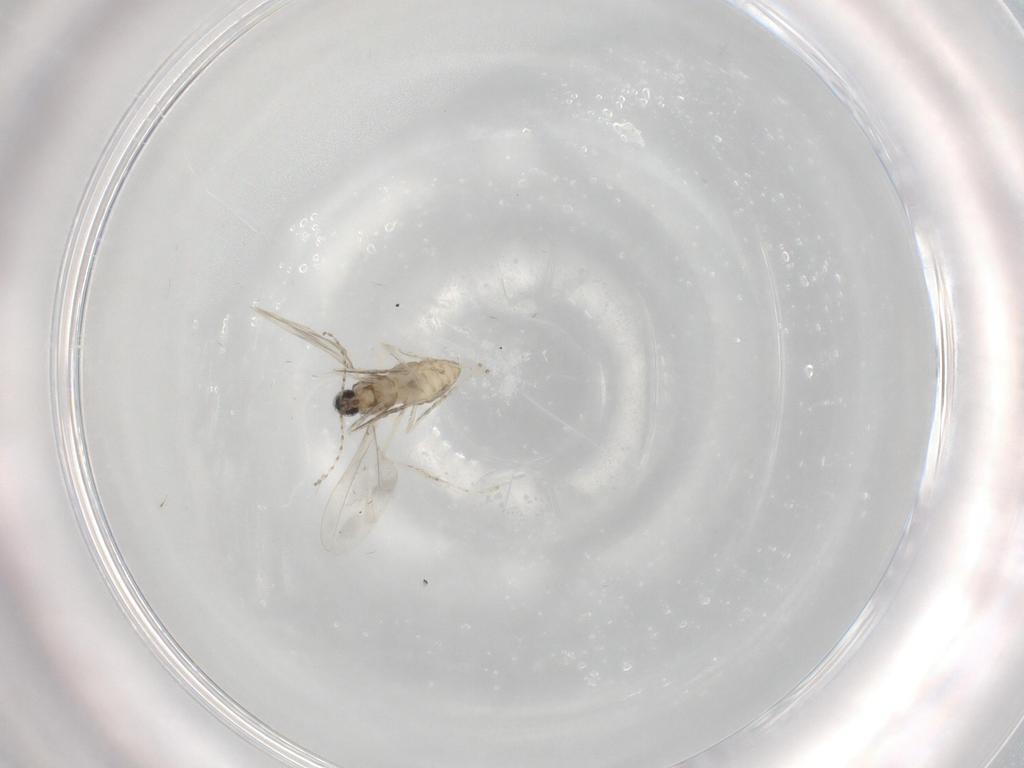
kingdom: Animalia
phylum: Arthropoda
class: Insecta
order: Diptera
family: Cecidomyiidae
